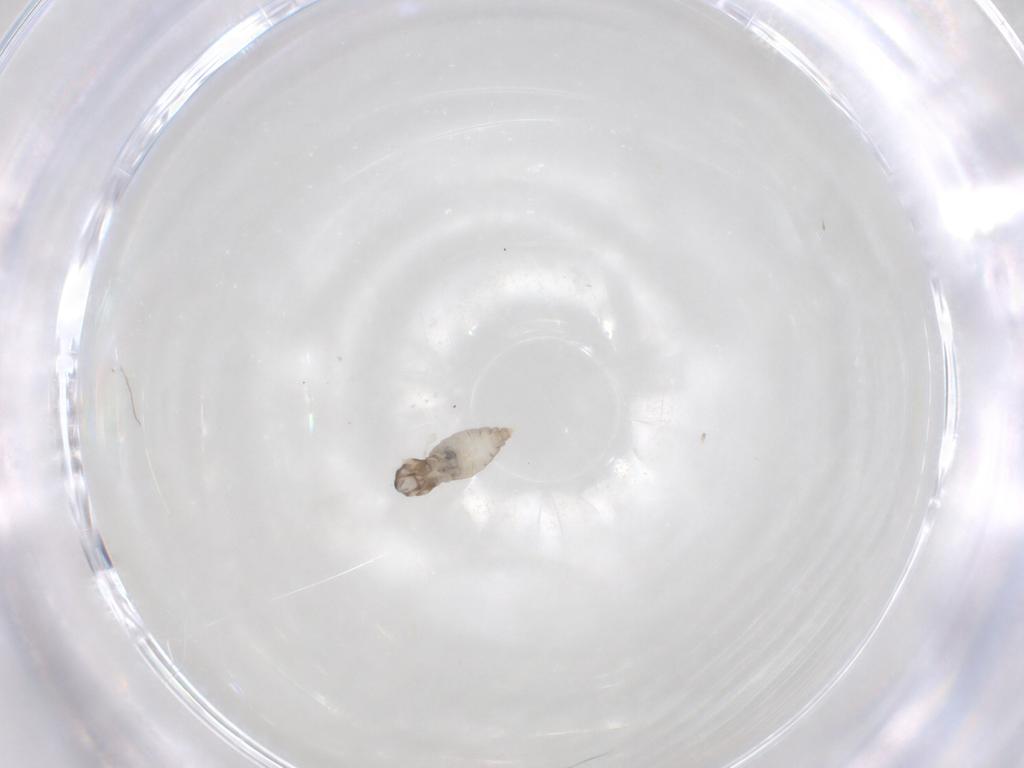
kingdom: Animalia
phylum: Arthropoda
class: Insecta
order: Diptera
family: Cecidomyiidae
